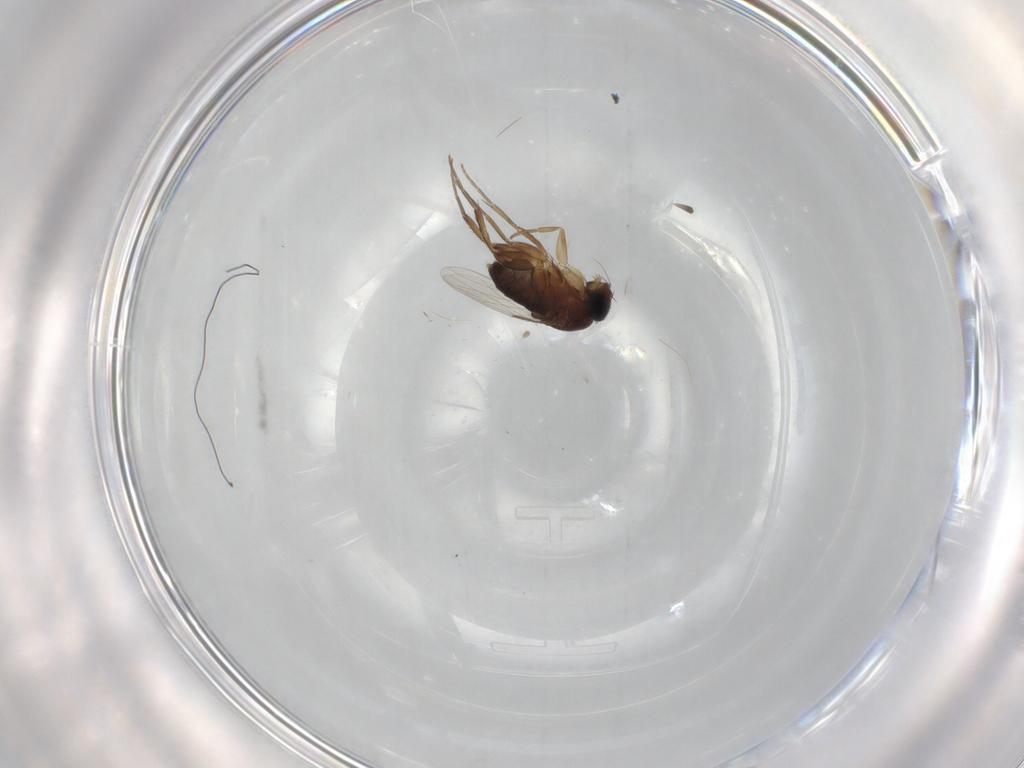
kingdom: Animalia
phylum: Arthropoda
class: Insecta
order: Diptera
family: Phoridae
